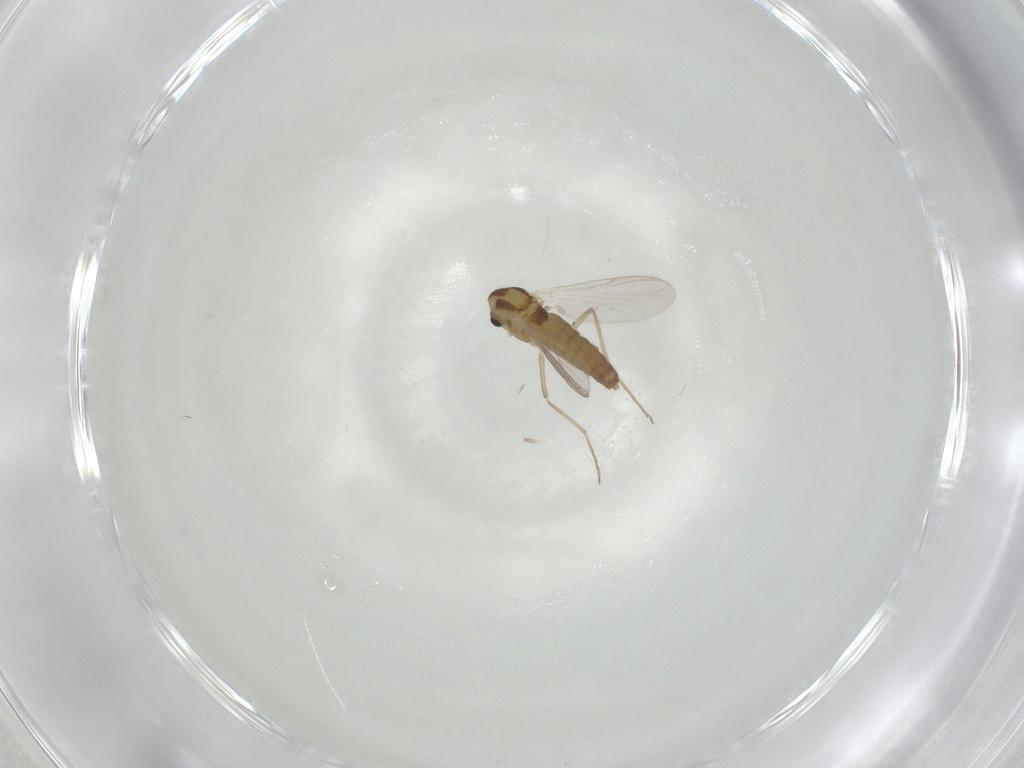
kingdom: Animalia
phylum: Arthropoda
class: Insecta
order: Diptera
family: Chironomidae
